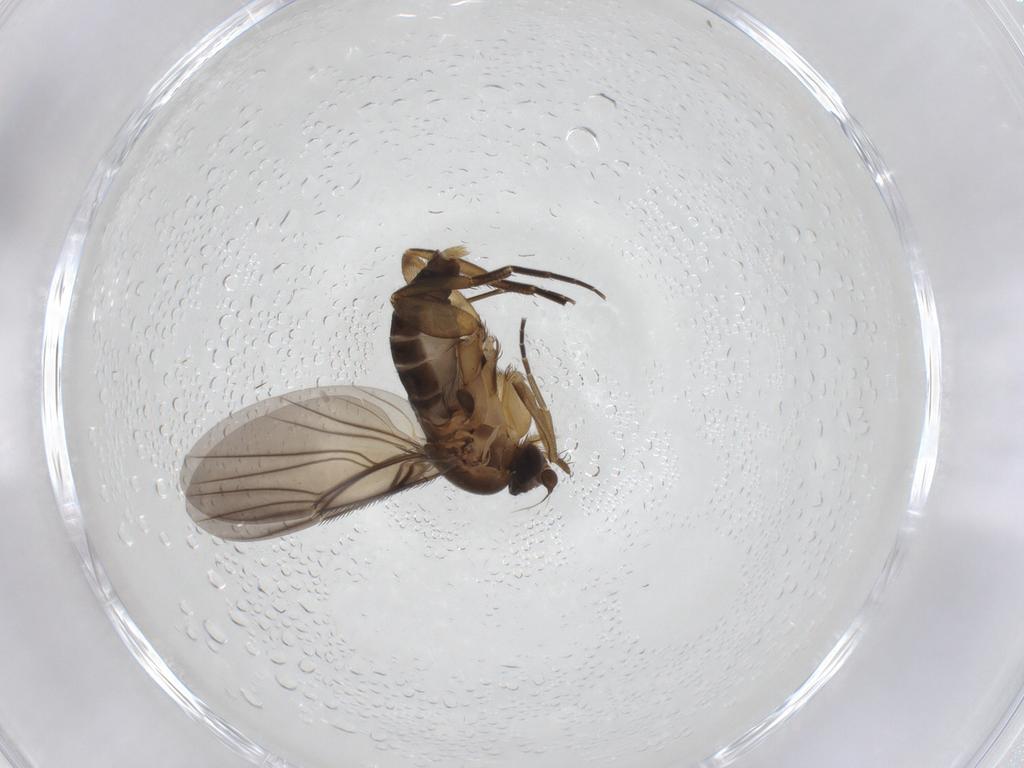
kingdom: Animalia
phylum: Arthropoda
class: Insecta
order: Diptera
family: Phoridae
